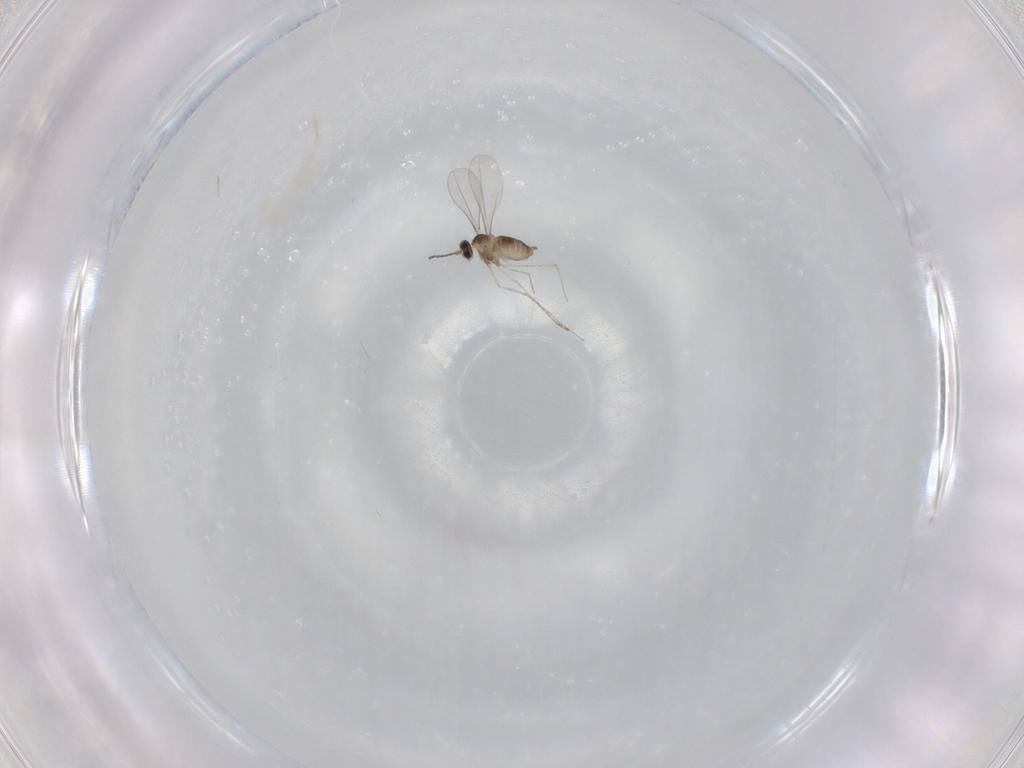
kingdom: Animalia
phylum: Arthropoda
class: Insecta
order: Diptera
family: Cecidomyiidae
